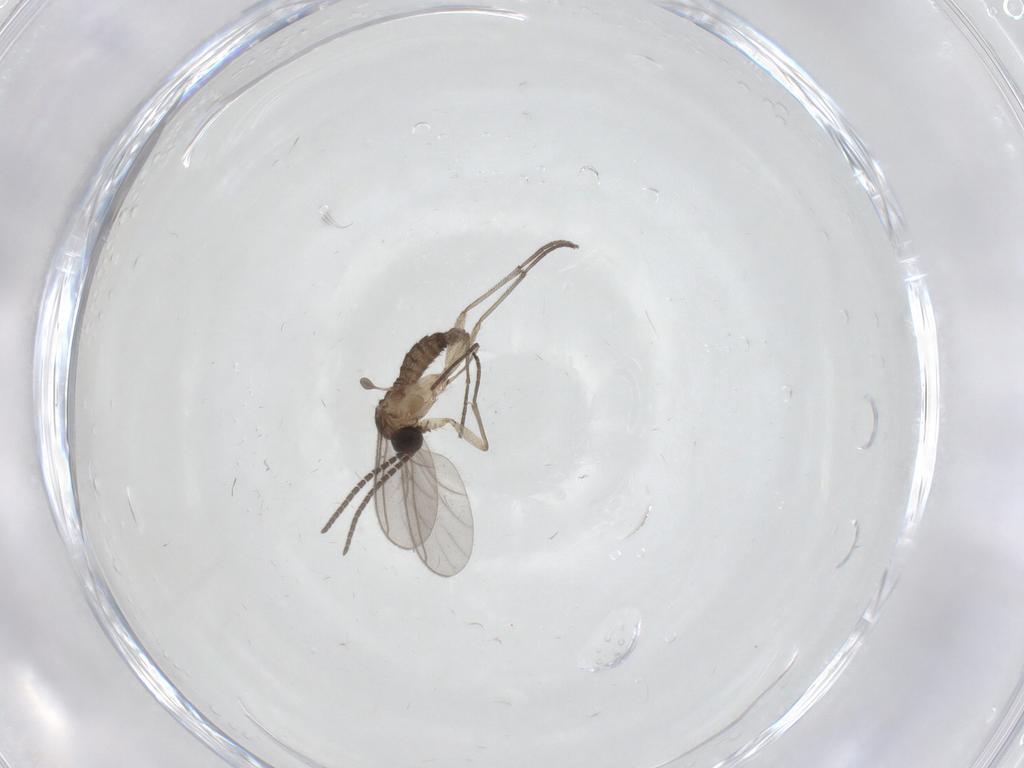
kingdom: Animalia
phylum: Arthropoda
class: Insecta
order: Diptera
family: Sciaridae
